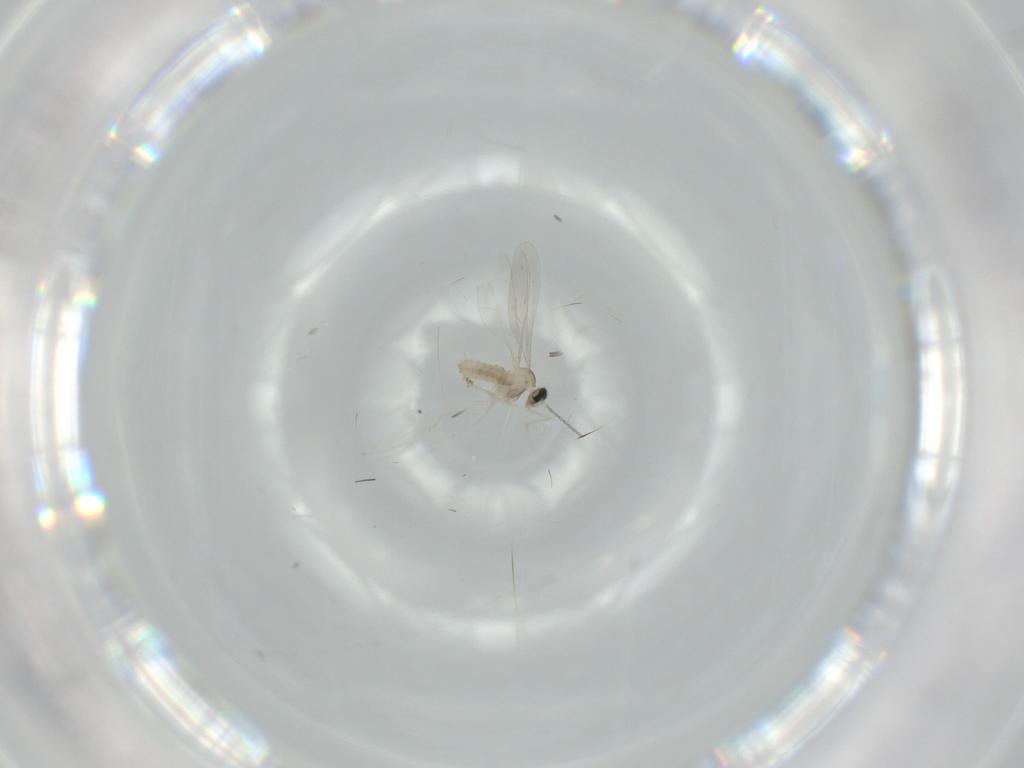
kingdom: Animalia
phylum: Arthropoda
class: Insecta
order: Diptera
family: Cecidomyiidae
